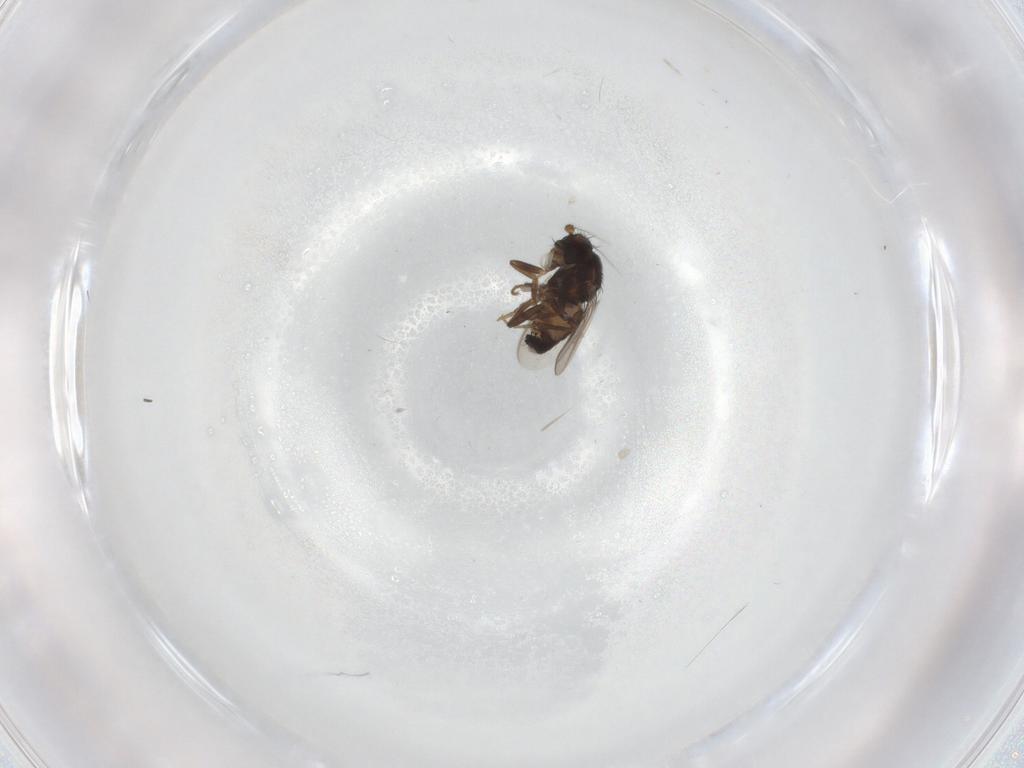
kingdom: Animalia
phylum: Arthropoda
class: Insecta
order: Diptera
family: Sphaeroceridae
